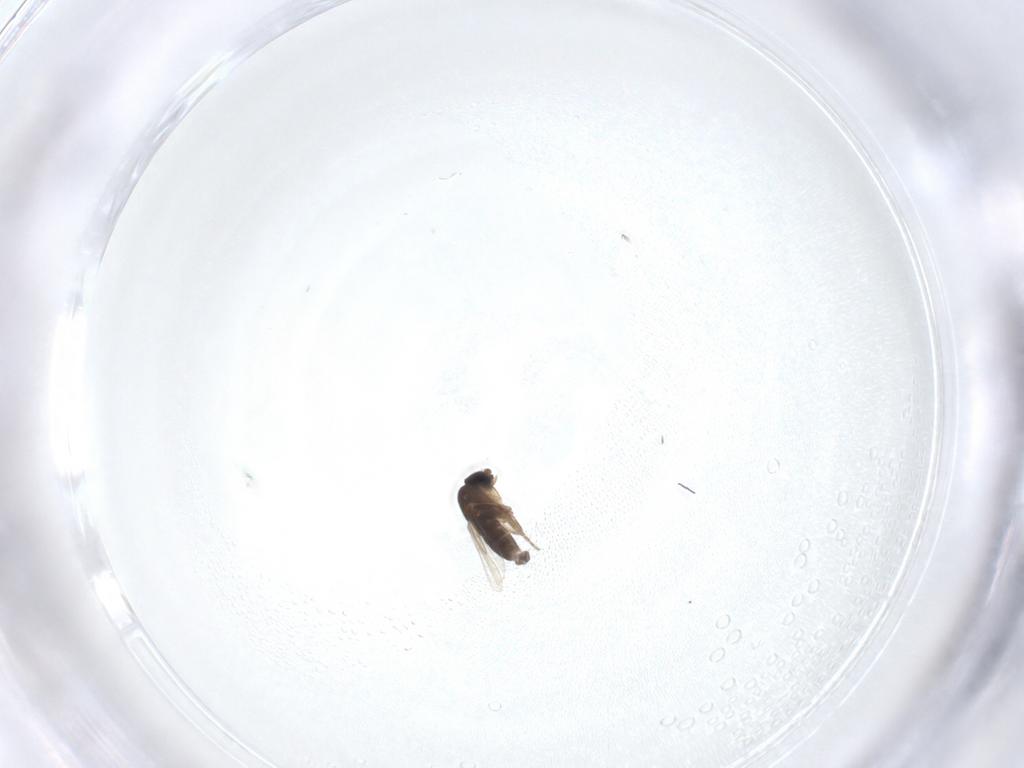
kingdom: Animalia
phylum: Arthropoda
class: Insecta
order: Diptera
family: Phoridae
